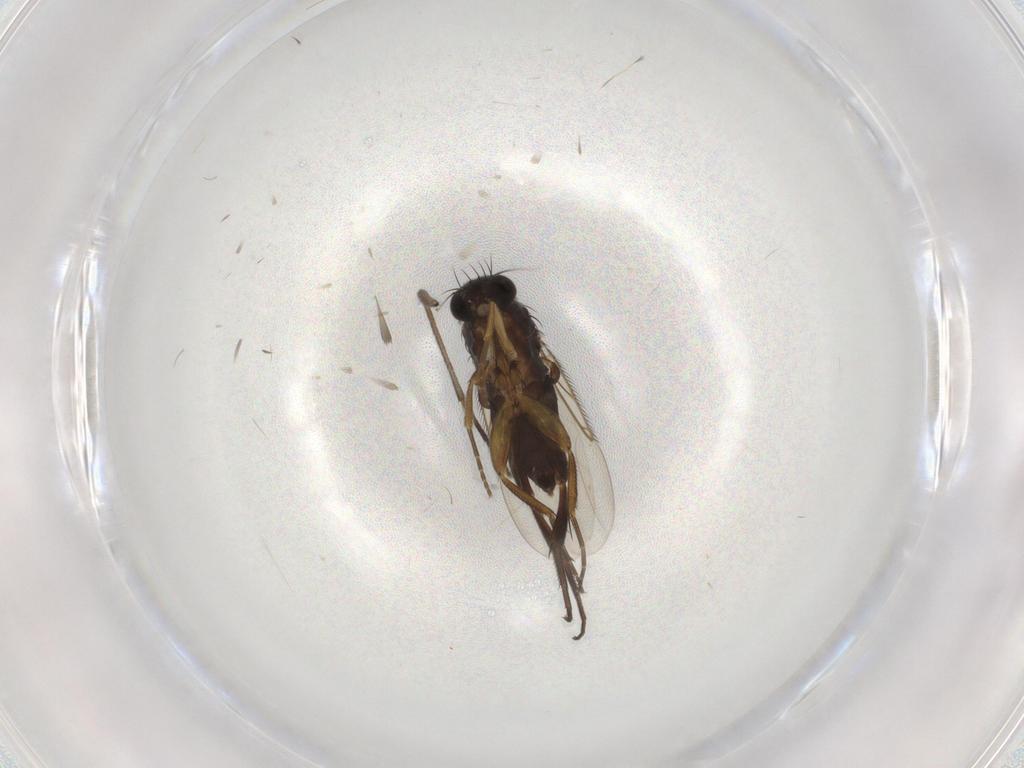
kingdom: Animalia
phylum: Arthropoda
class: Insecta
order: Diptera
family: Phoridae
